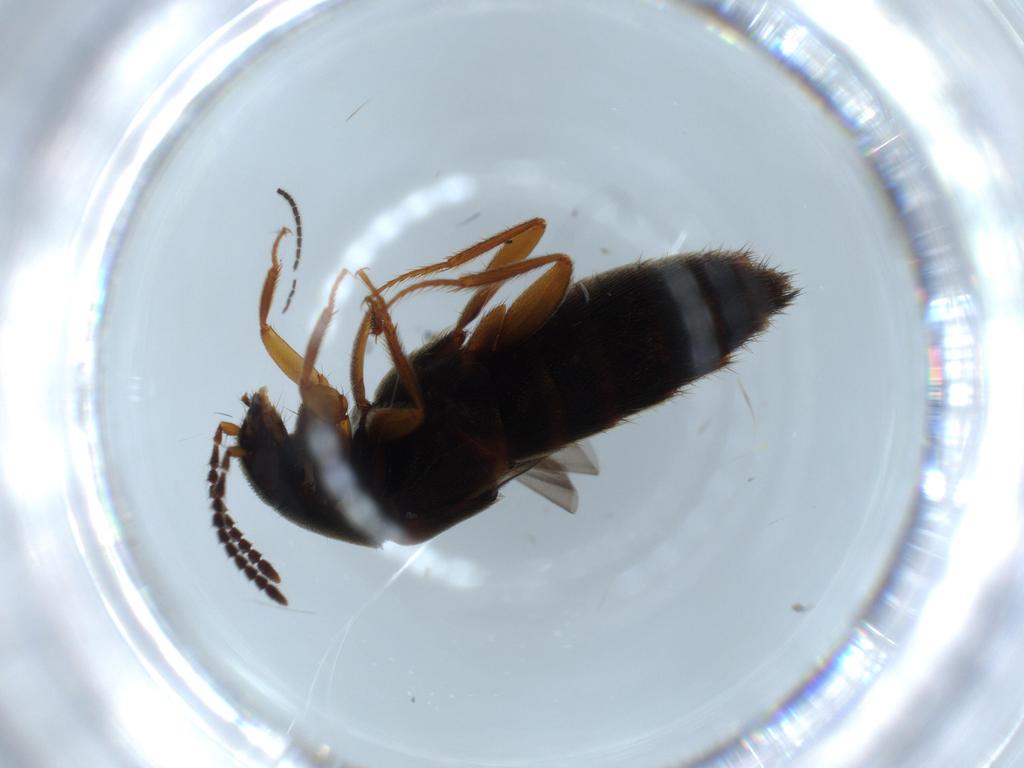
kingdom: Animalia
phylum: Arthropoda
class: Insecta
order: Coleoptera
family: Staphylinidae
